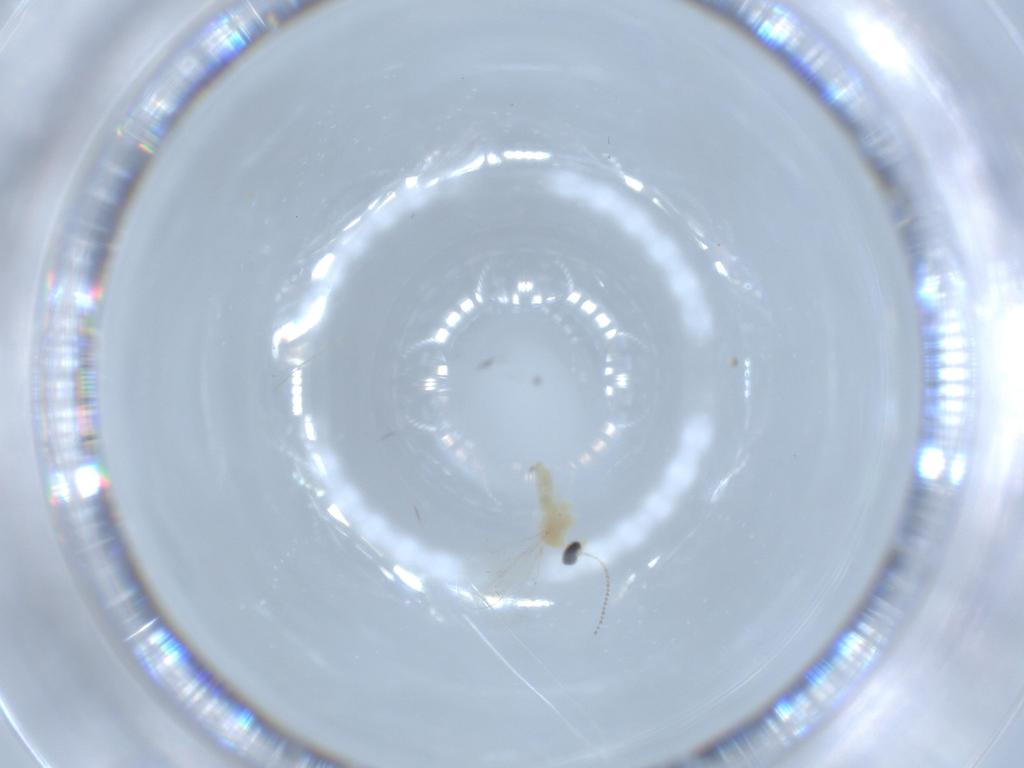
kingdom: Animalia
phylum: Arthropoda
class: Insecta
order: Diptera
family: Cecidomyiidae
